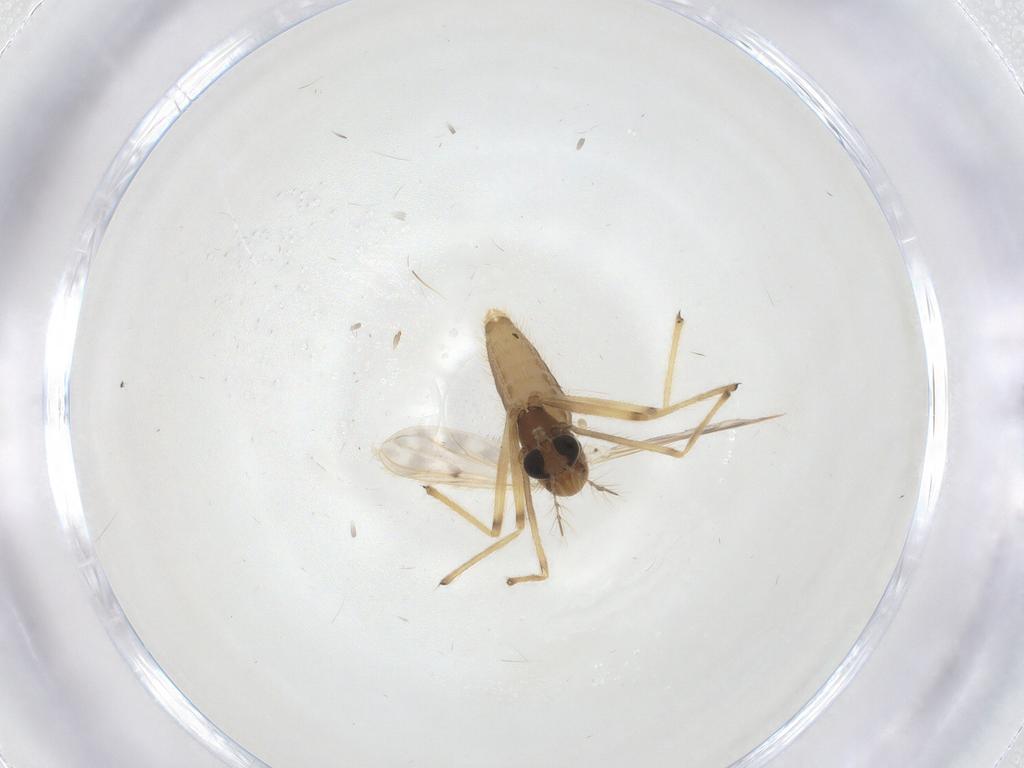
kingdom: Animalia
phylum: Arthropoda
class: Insecta
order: Diptera
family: Chironomidae
